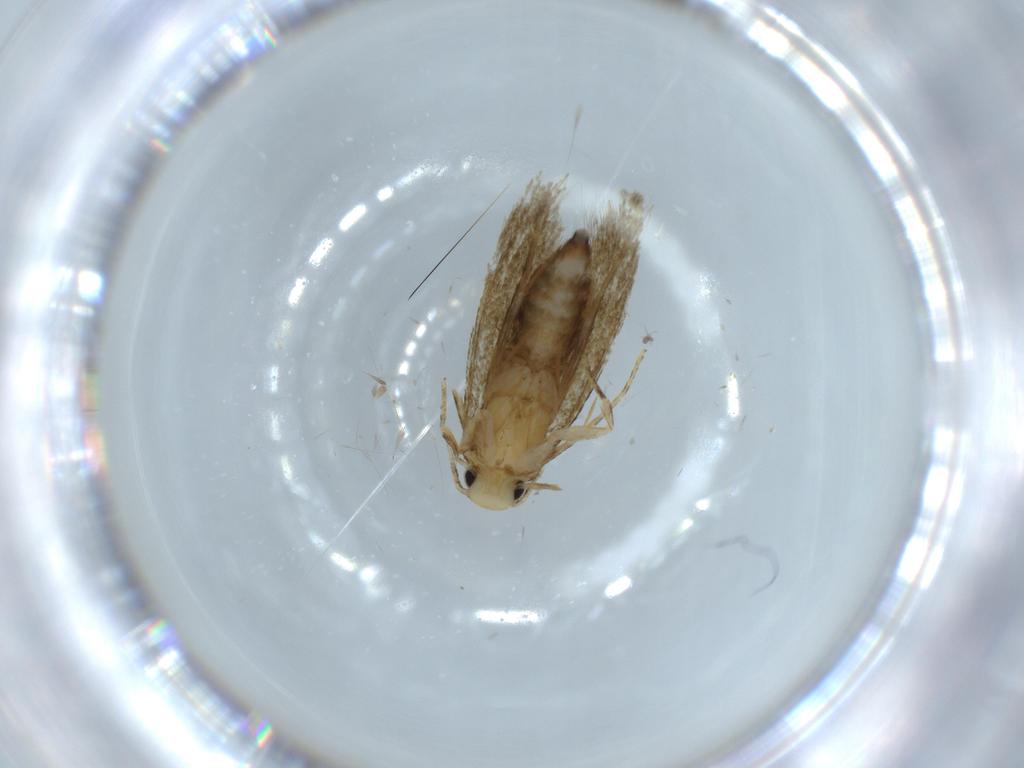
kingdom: Animalia
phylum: Arthropoda
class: Insecta
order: Lepidoptera
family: Tineidae
